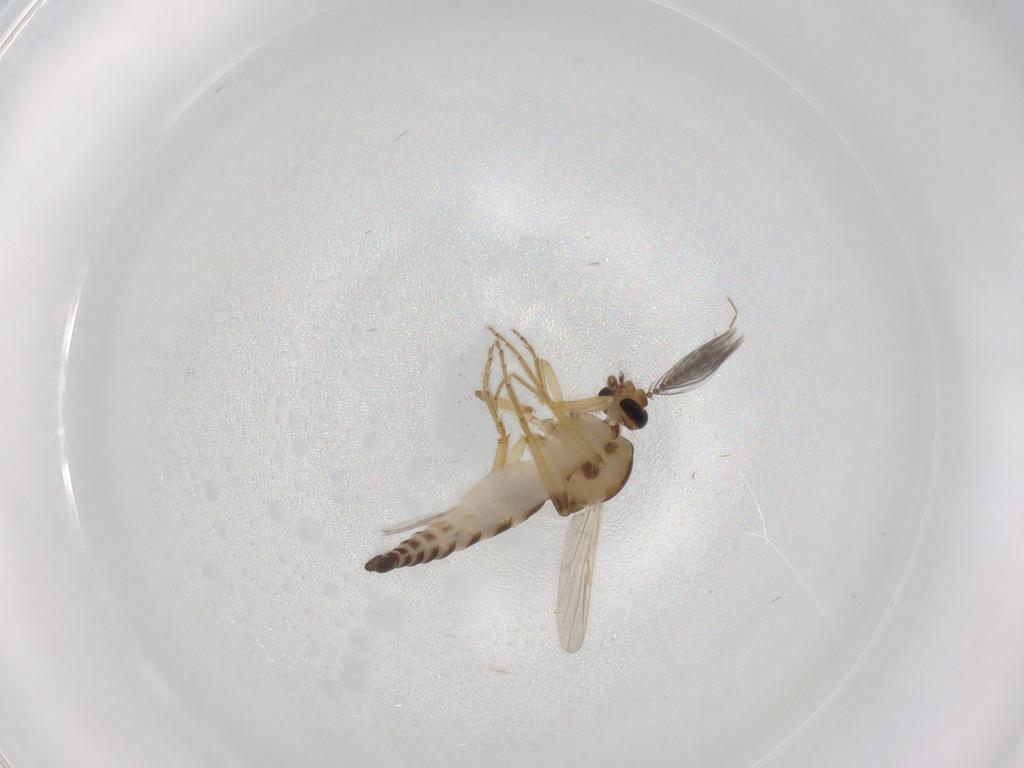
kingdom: Animalia
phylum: Arthropoda
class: Insecta
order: Diptera
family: Ceratopogonidae
